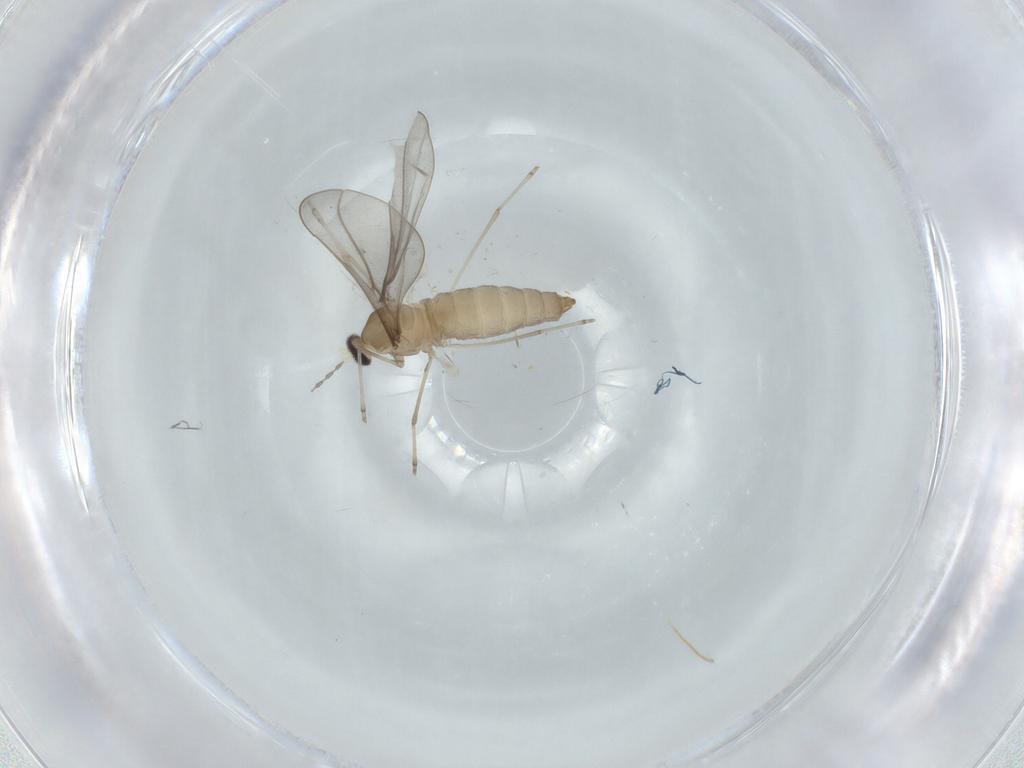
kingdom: Animalia
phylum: Arthropoda
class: Insecta
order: Diptera
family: Cecidomyiidae
